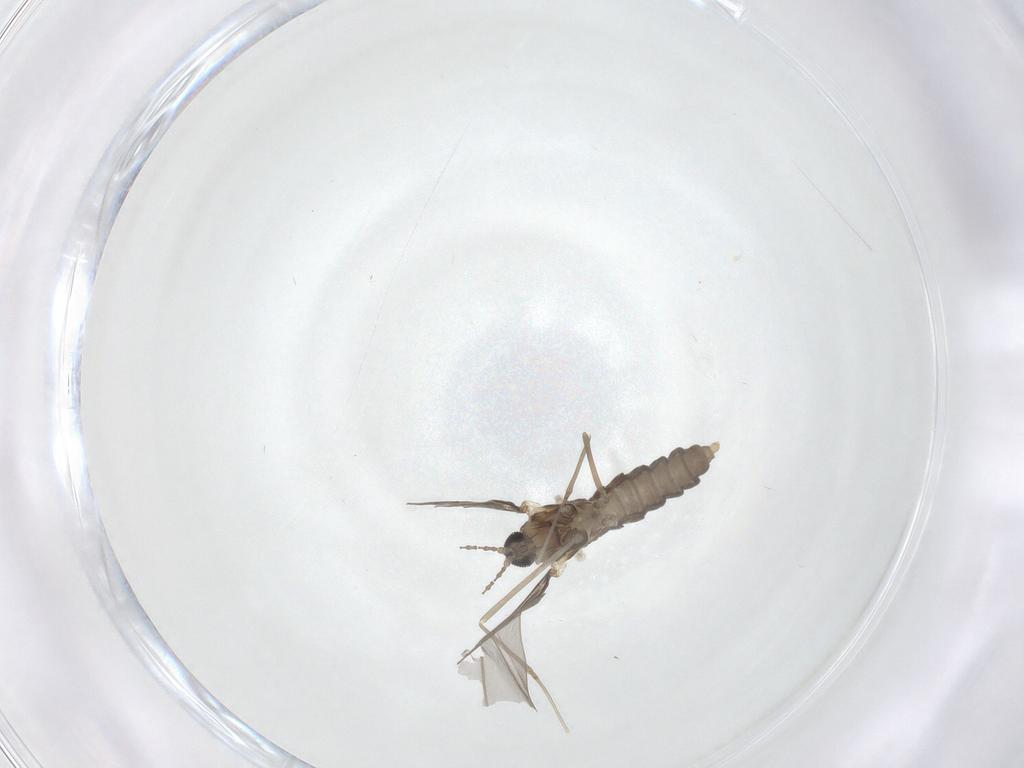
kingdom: Animalia
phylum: Arthropoda
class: Insecta
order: Diptera
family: Cecidomyiidae
